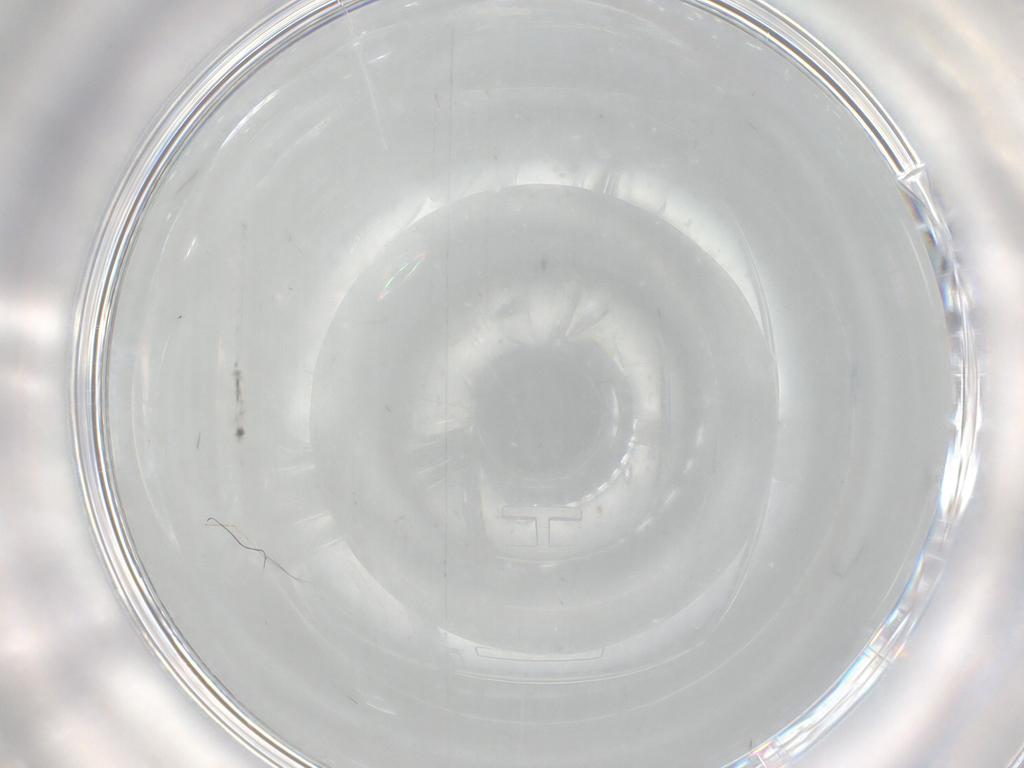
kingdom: Animalia
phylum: Arthropoda
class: Insecta
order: Diptera
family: Cecidomyiidae
